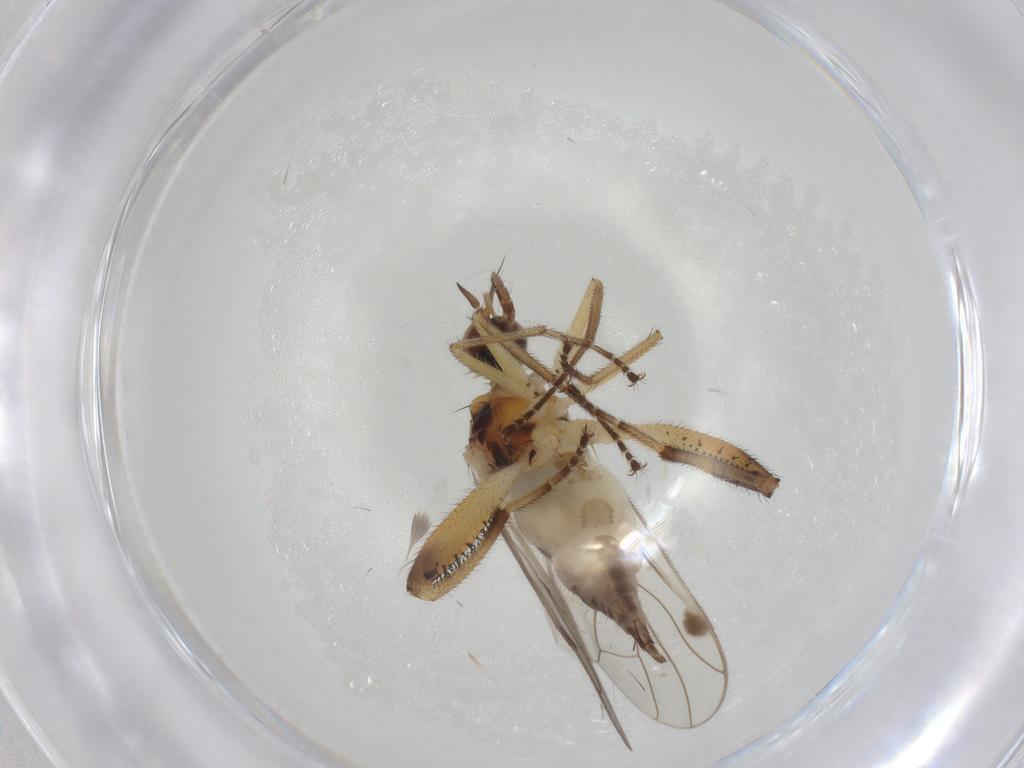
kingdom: Animalia
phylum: Arthropoda
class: Insecta
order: Diptera
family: Hybotidae
